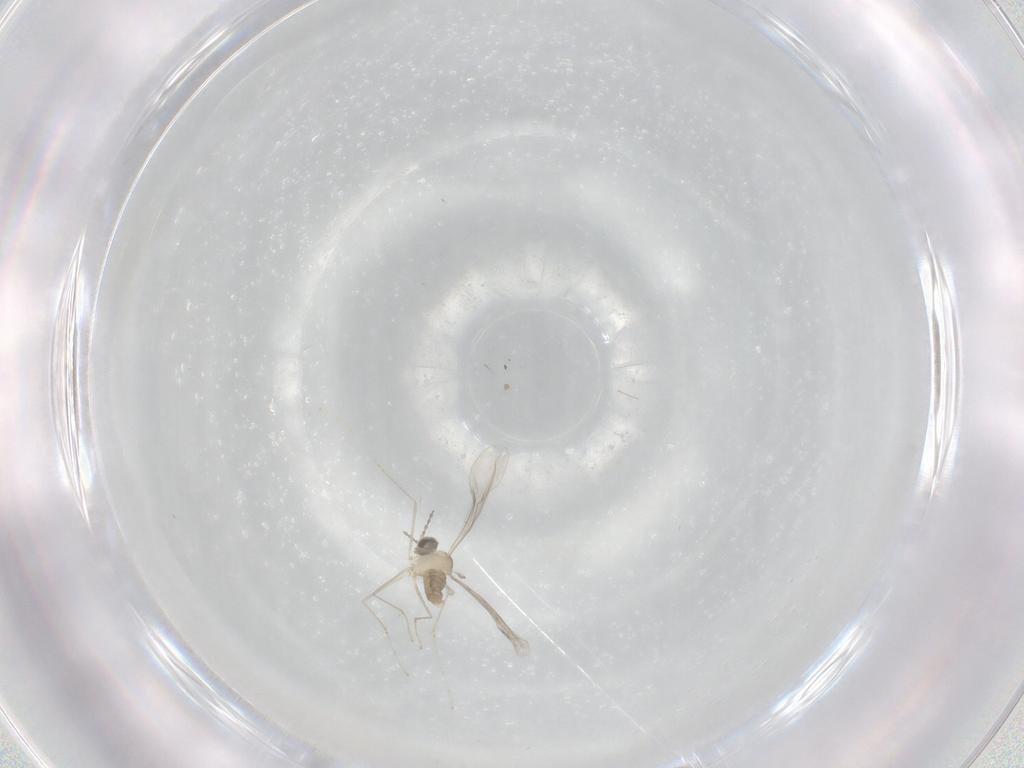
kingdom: Animalia
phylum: Arthropoda
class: Insecta
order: Diptera
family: Cecidomyiidae
